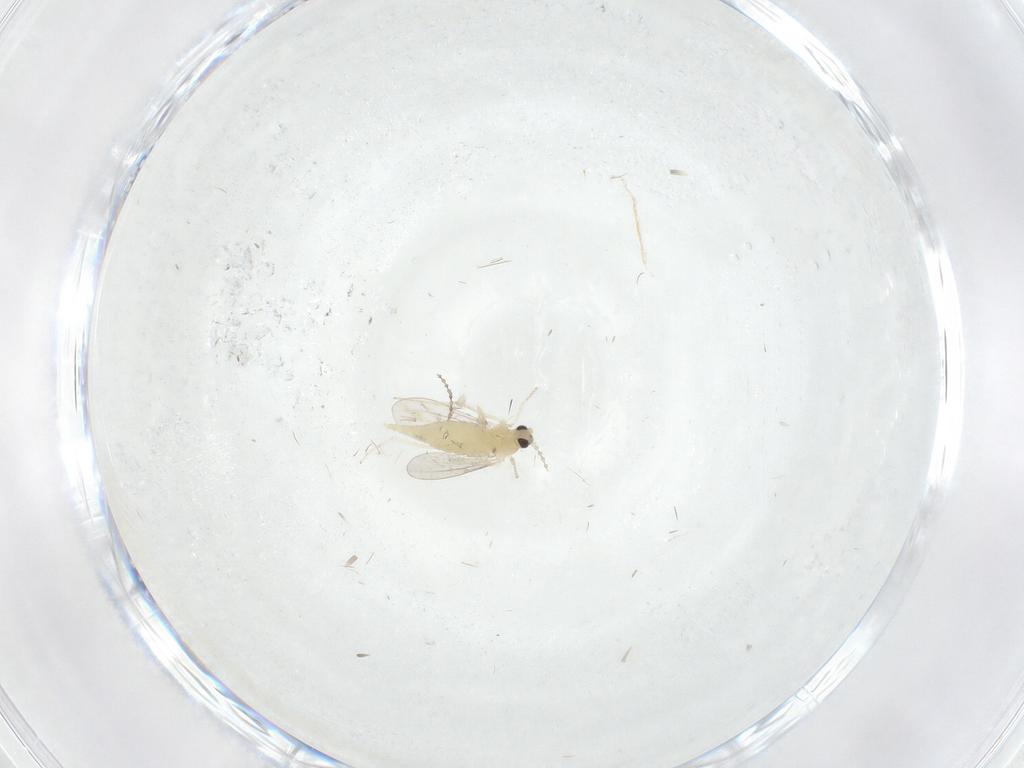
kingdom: Animalia
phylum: Arthropoda
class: Insecta
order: Diptera
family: Cecidomyiidae
